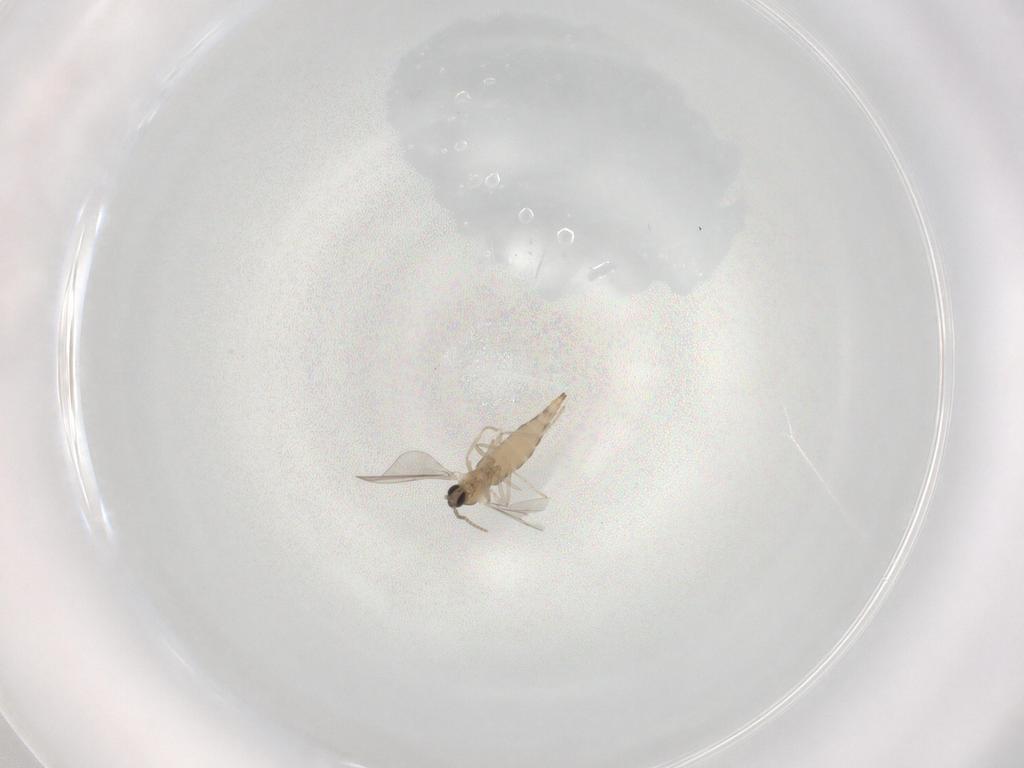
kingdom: Animalia
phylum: Arthropoda
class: Insecta
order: Diptera
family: Cecidomyiidae
